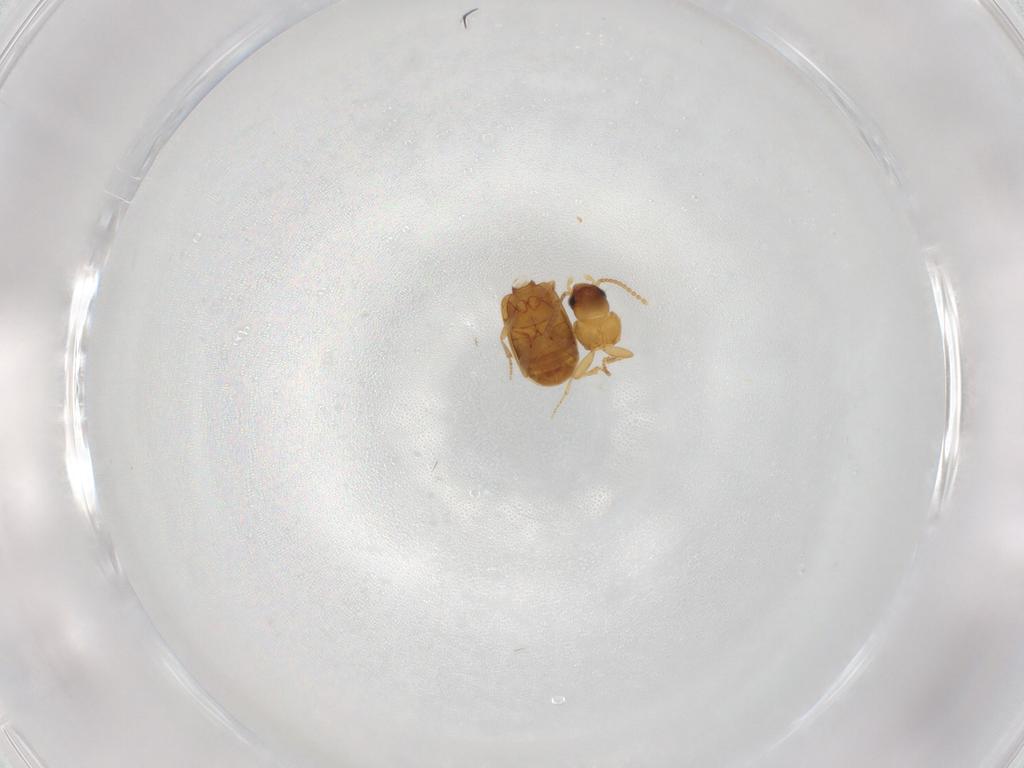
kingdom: Animalia
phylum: Arthropoda
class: Insecta
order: Coleoptera
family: Carabidae
